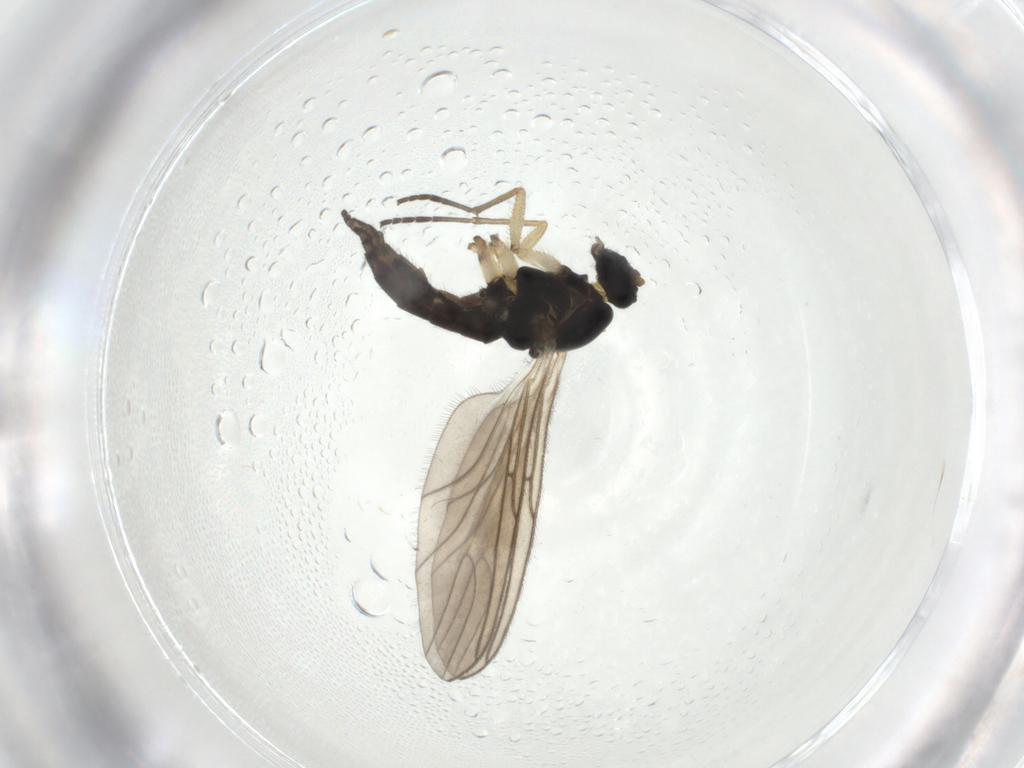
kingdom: Animalia
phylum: Arthropoda
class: Insecta
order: Diptera
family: Sciaridae
